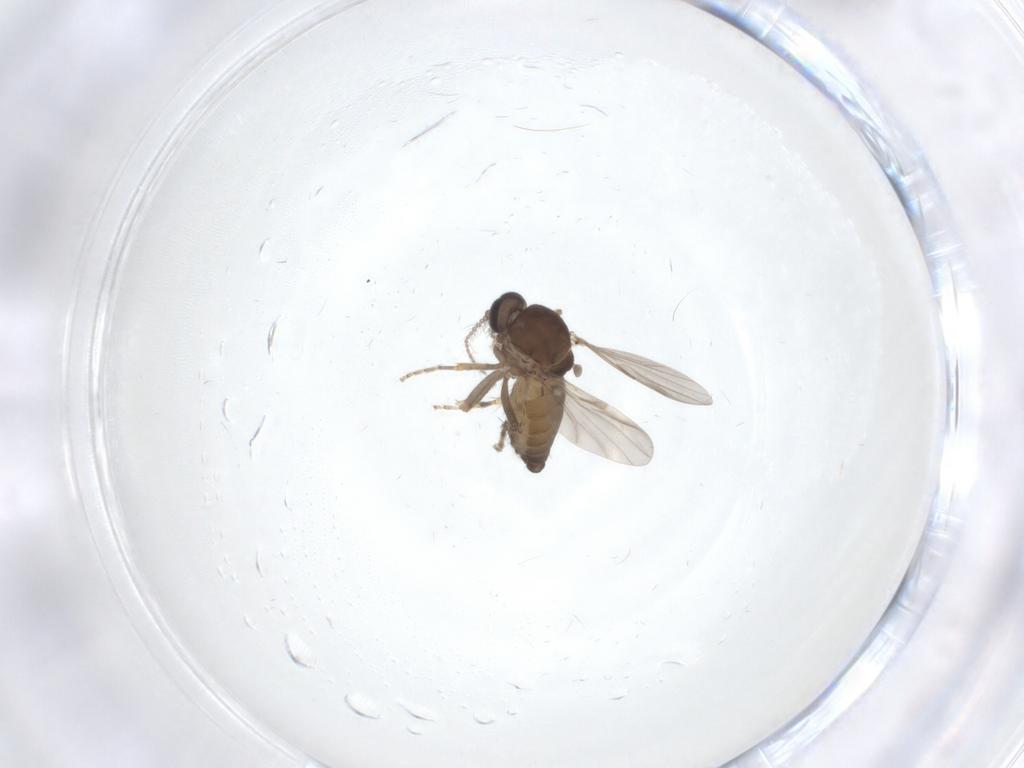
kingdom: Animalia
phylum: Arthropoda
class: Insecta
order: Diptera
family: Ceratopogonidae
